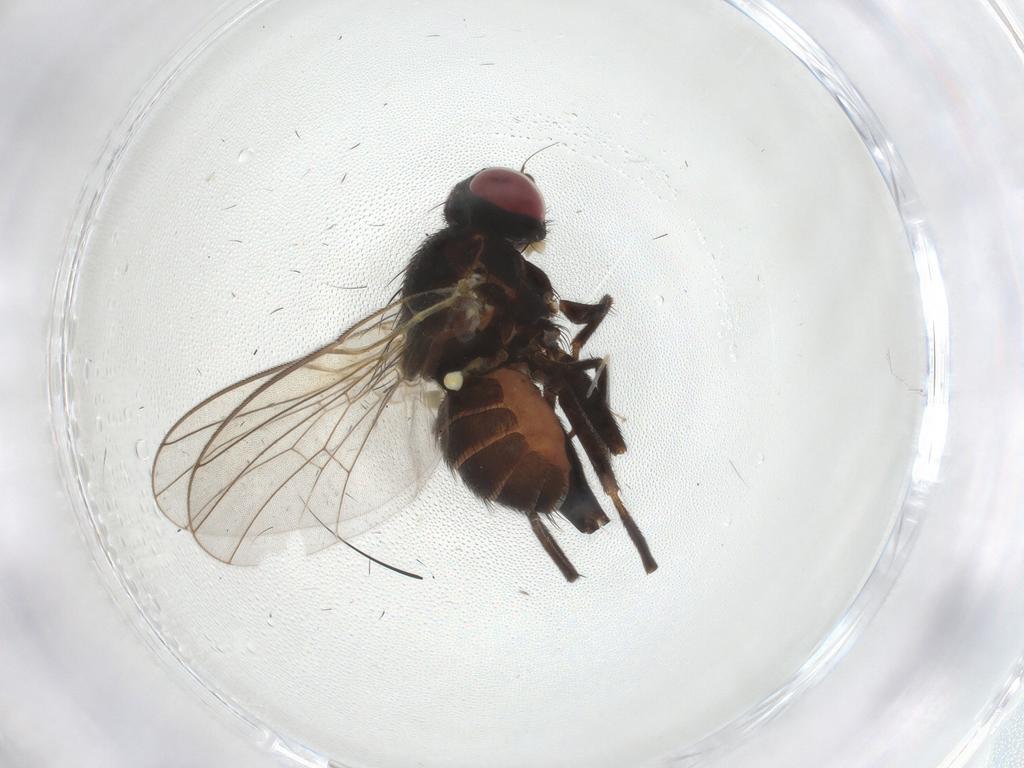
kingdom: Animalia
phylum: Arthropoda
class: Insecta
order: Diptera
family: Agromyzidae
